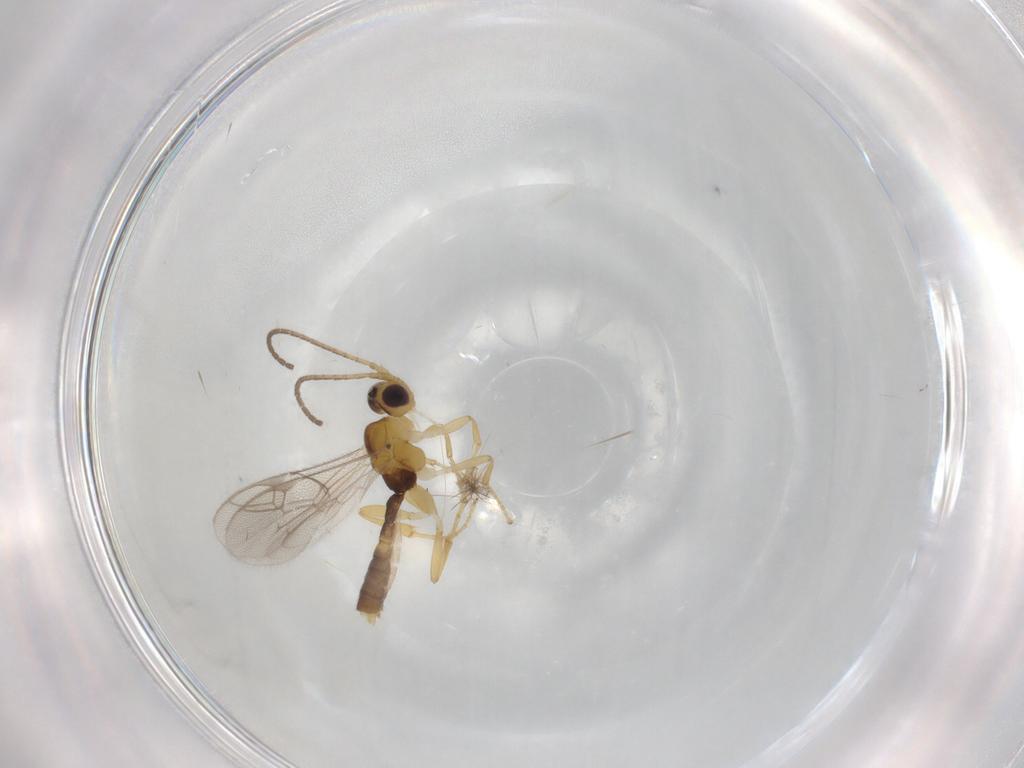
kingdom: Animalia
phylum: Arthropoda
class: Insecta
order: Hymenoptera
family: Ichneumonidae
